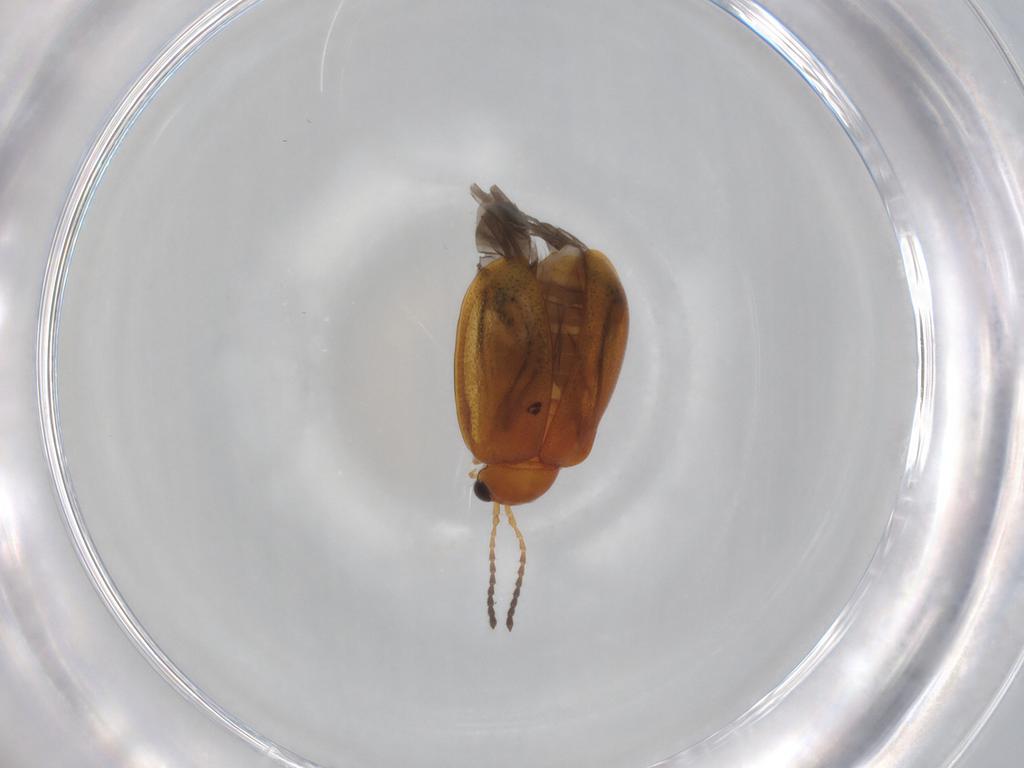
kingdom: Animalia
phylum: Arthropoda
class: Insecta
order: Coleoptera
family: Chrysomelidae
